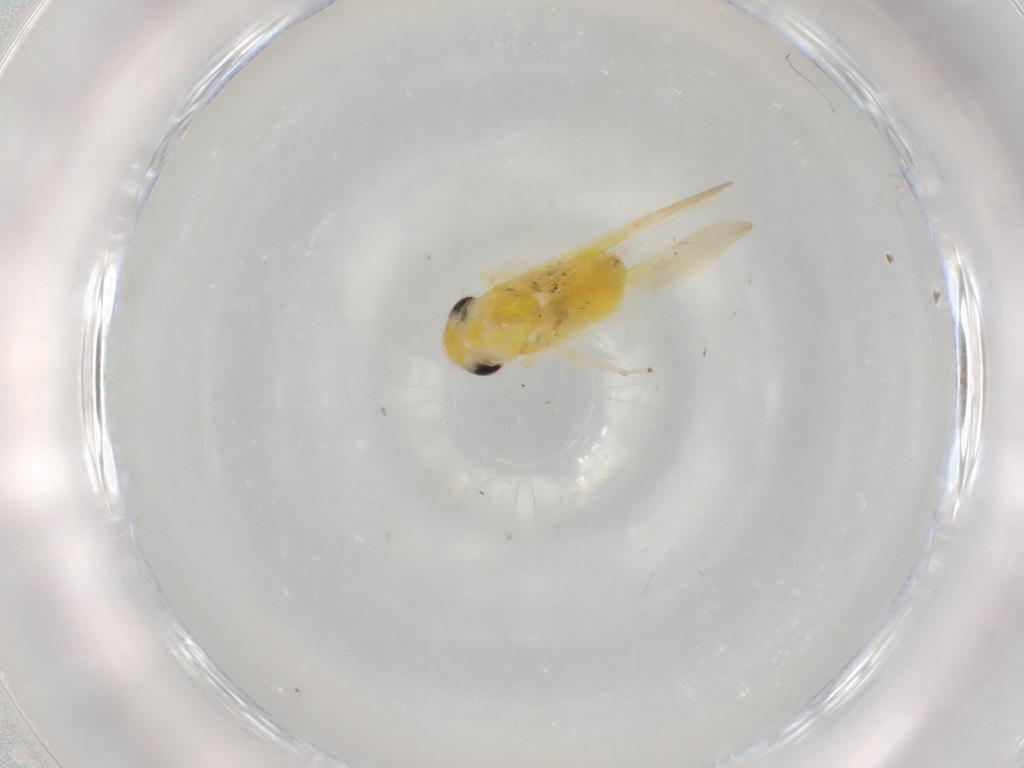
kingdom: Animalia
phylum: Arthropoda
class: Insecta
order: Hemiptera
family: Cicadellidae
